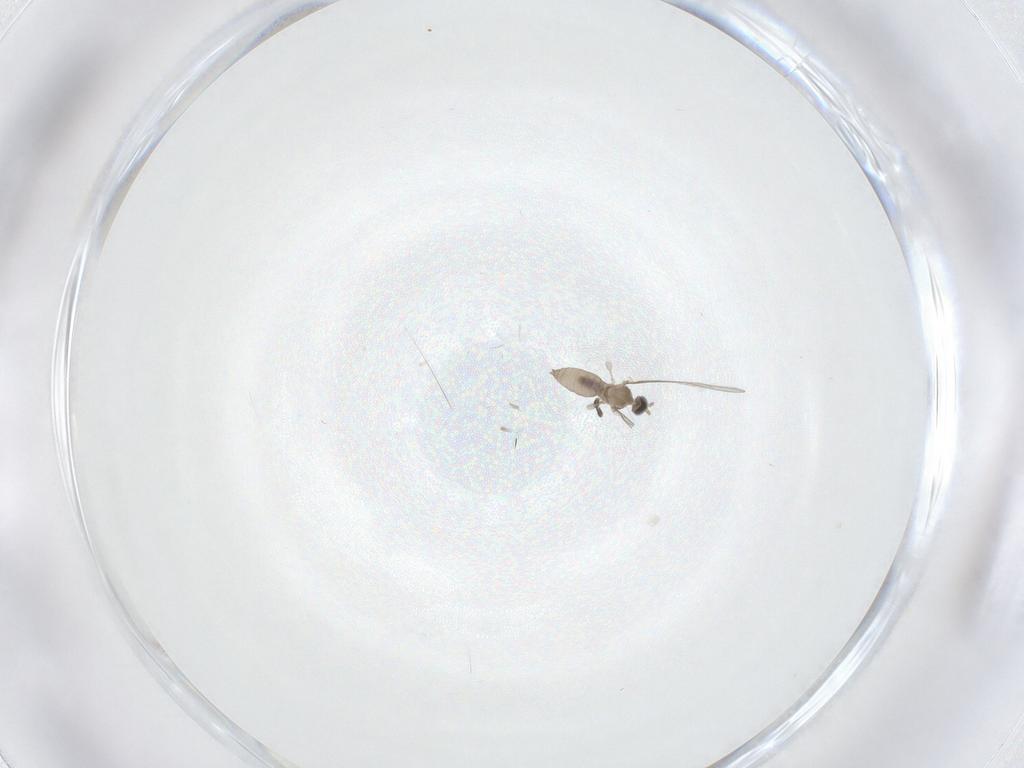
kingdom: Animalia
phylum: Arthropoda
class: Insecta
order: Diptera
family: Cecidomyiidae
